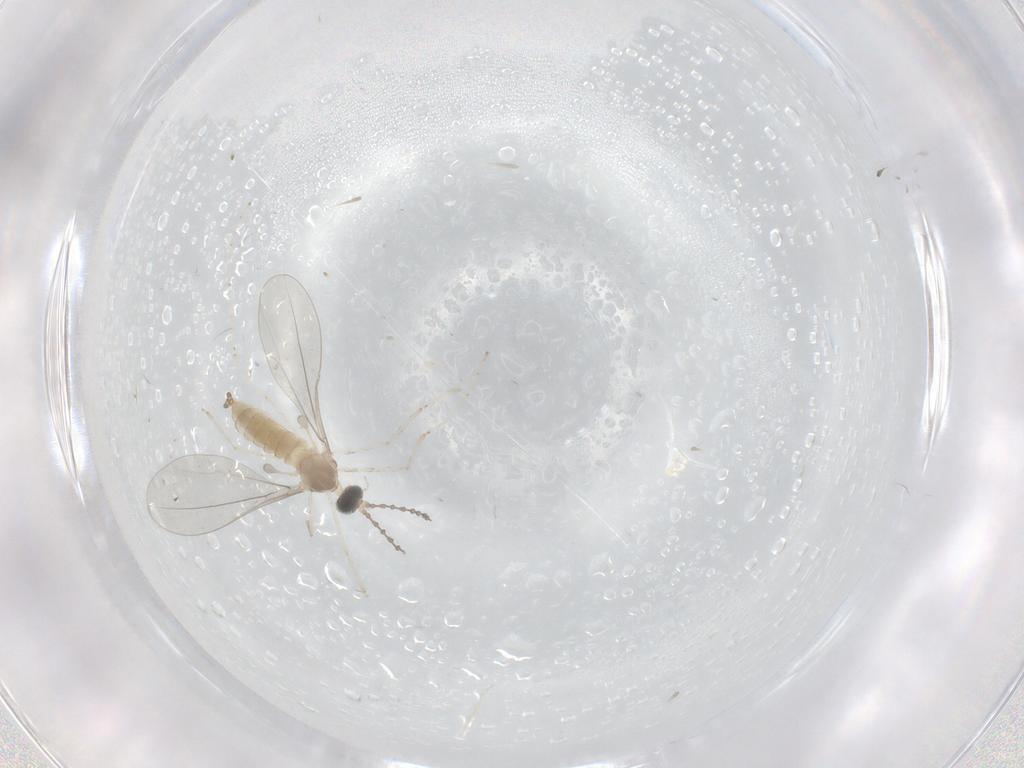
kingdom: Animalia
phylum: Arthropoda
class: Insecta
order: Diptera
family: Cecidomyiidae
